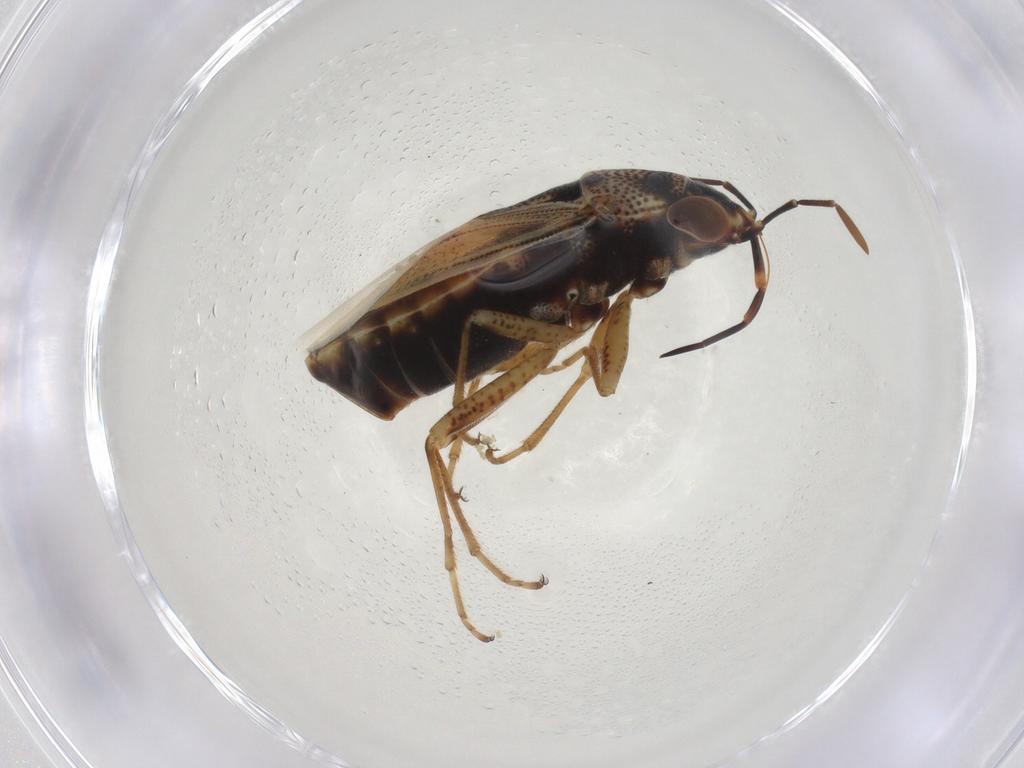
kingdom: Animalia
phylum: Arthropoda
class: Insecta
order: Hemiptera
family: Geocoridae
